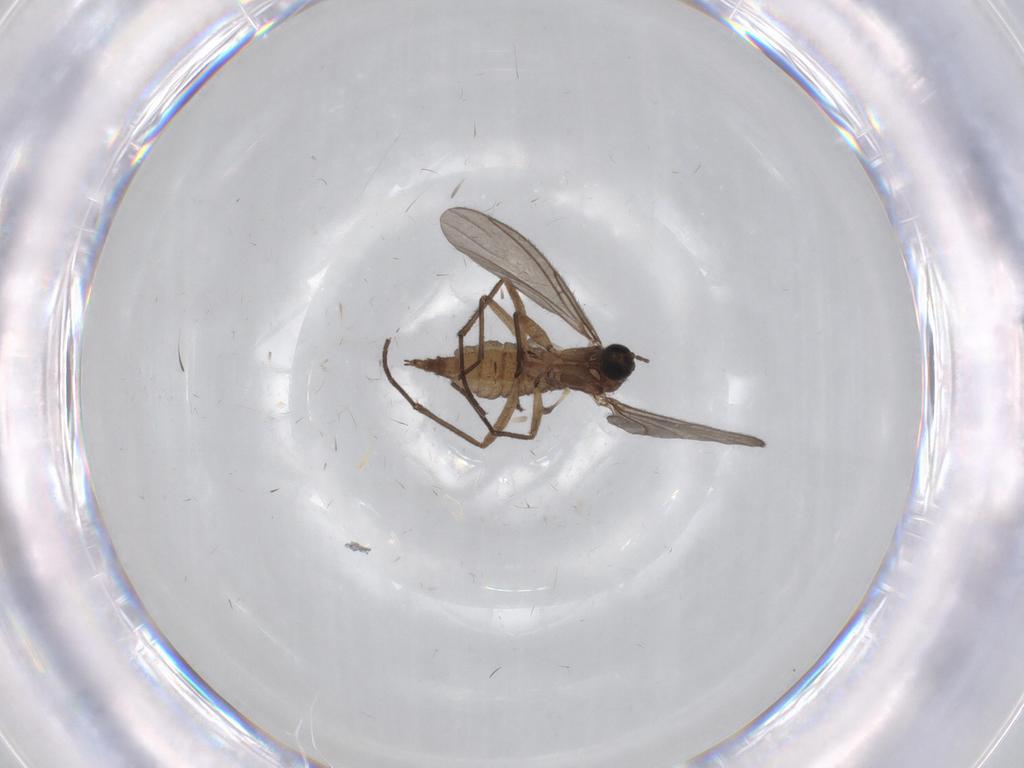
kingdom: Animalia
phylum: Arthropoda
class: Insecta
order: Diptera
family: Sciaridae
